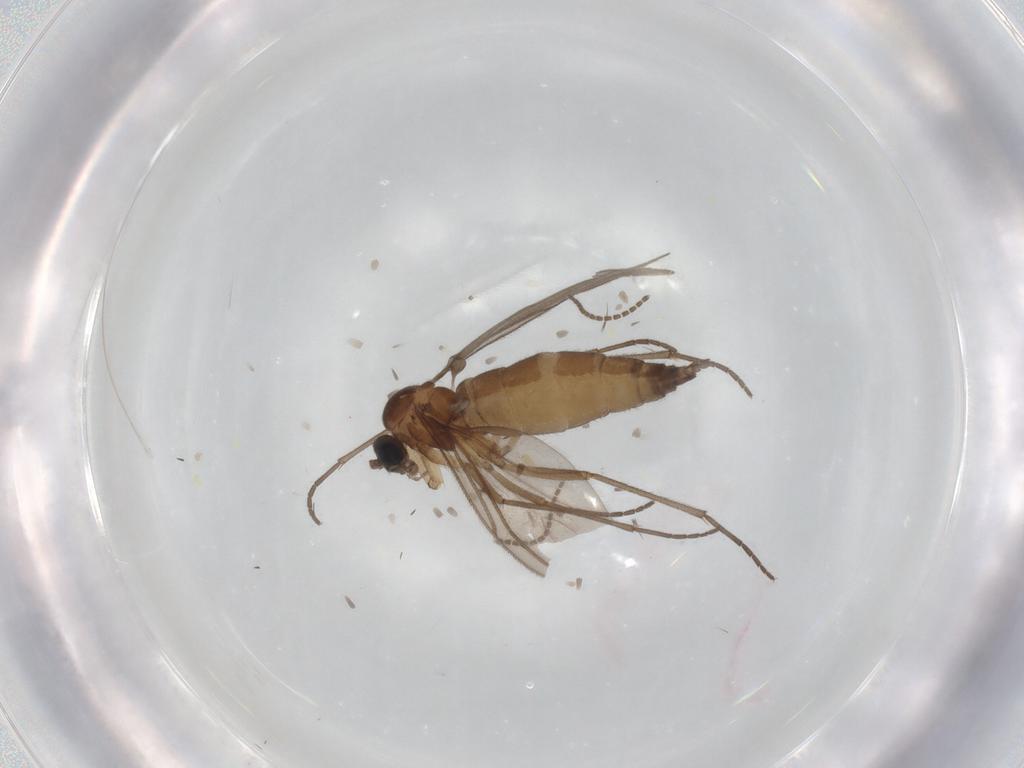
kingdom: Animalia
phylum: Arthropoda
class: Insecta
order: Diptera
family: Sciaridae
